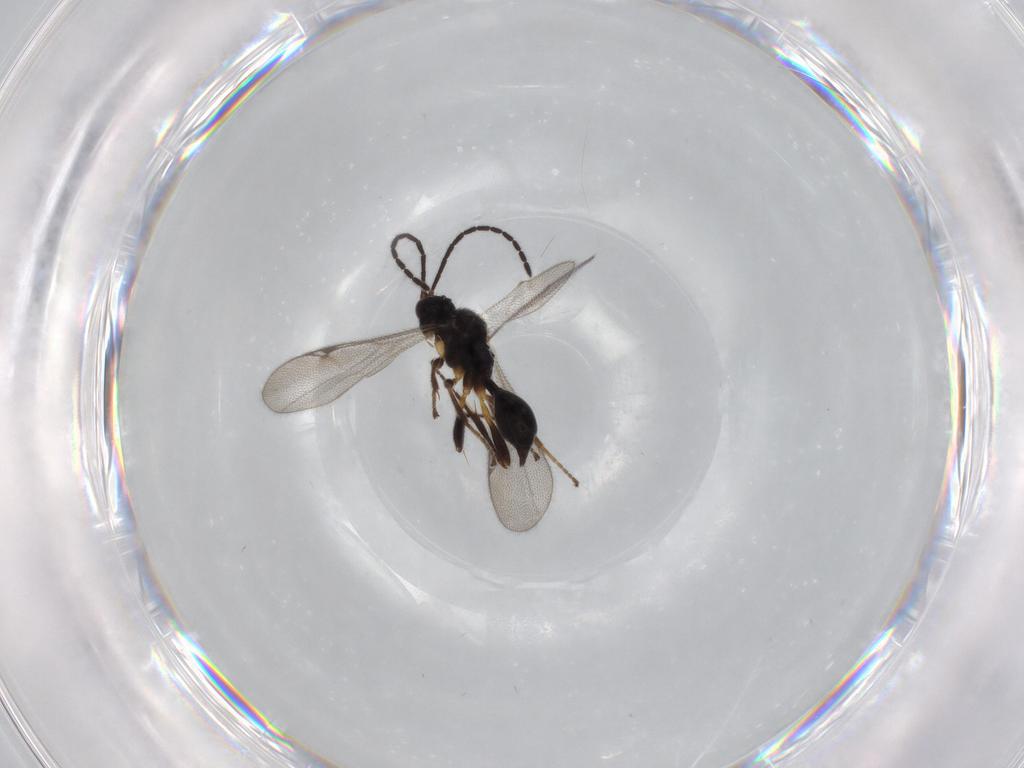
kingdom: Animalia
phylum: Arthropoda
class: Insecta
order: Hymenoptera
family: Proctotrupidae
